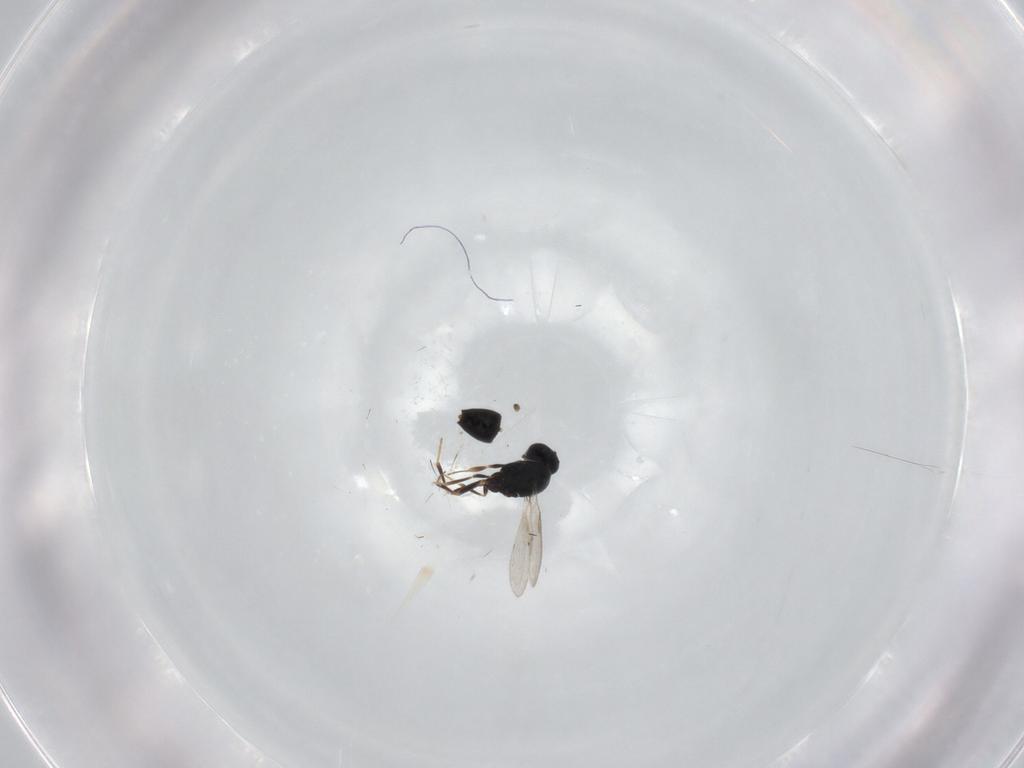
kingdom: Animalia
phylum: Arthropoda
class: Insecta
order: Hymenoptera
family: Scelionidae
